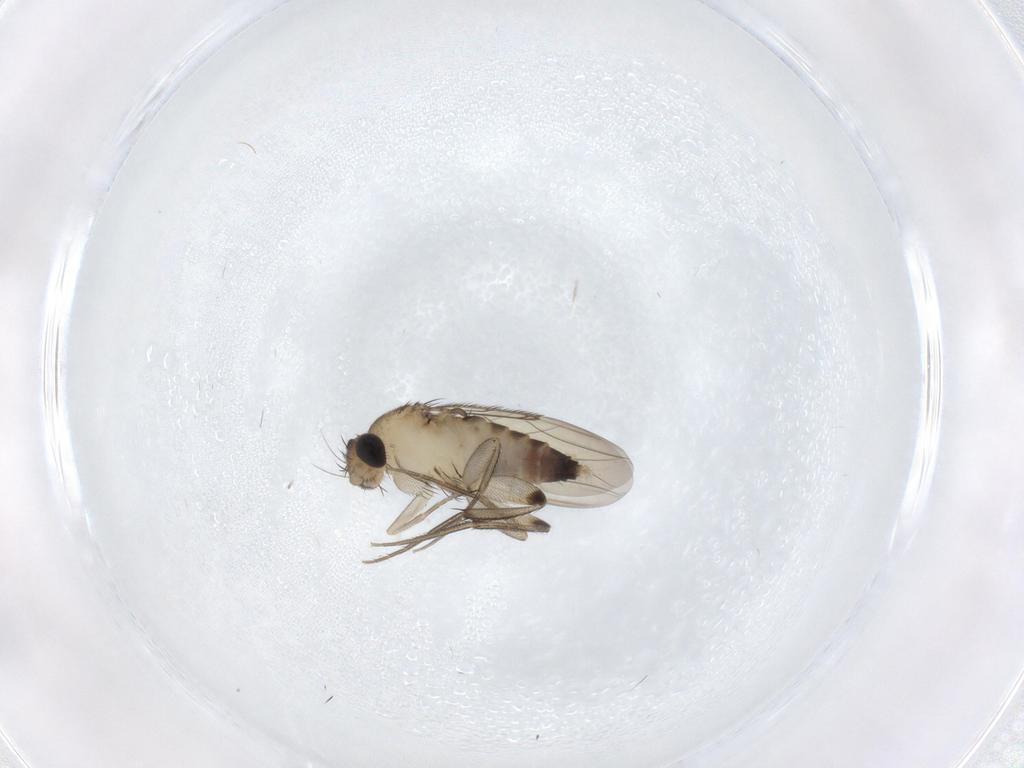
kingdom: Animalia
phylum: Arthropoda
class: Insecta
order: Diptera
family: Phoridae
